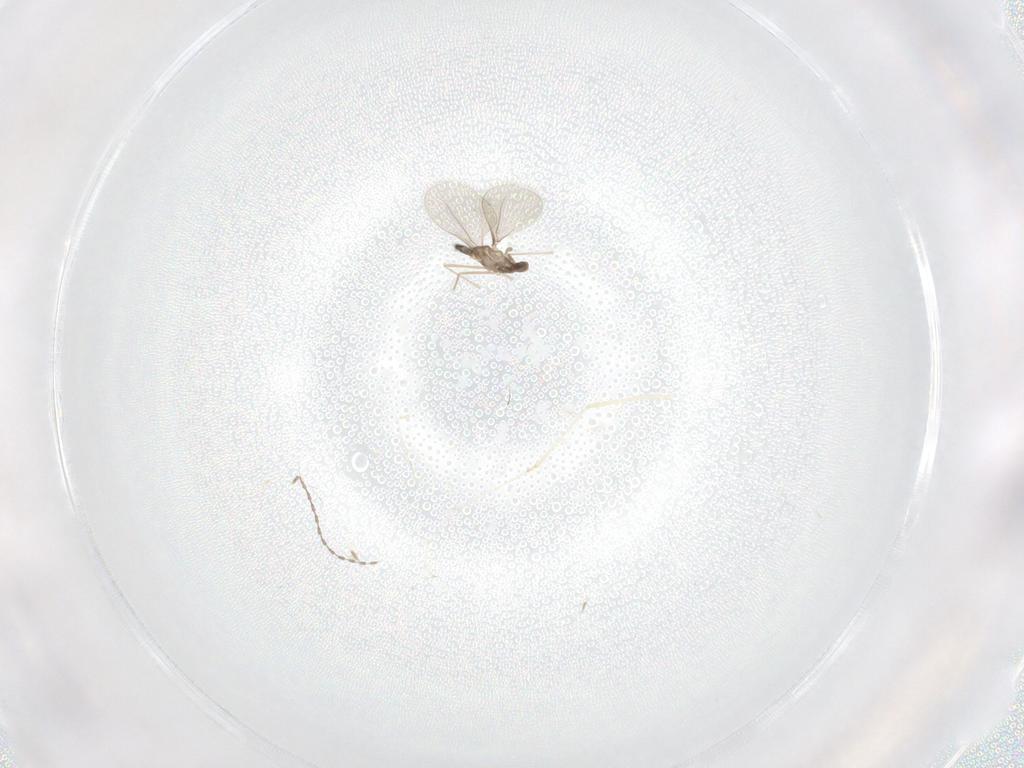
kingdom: Animalia
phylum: Arthropoda
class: Insecta
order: Diptera
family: Cecidomyiidae
